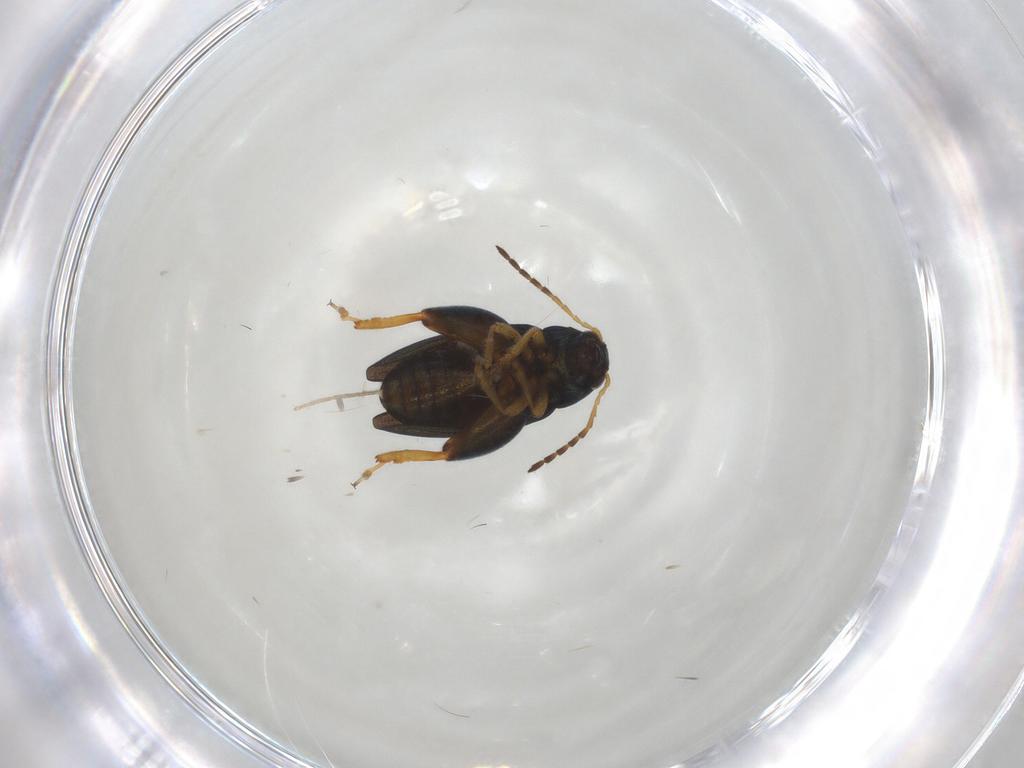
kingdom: Animalia
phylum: Arthropoda
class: Insecta
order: Coleoptera
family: Chrysomelidae
